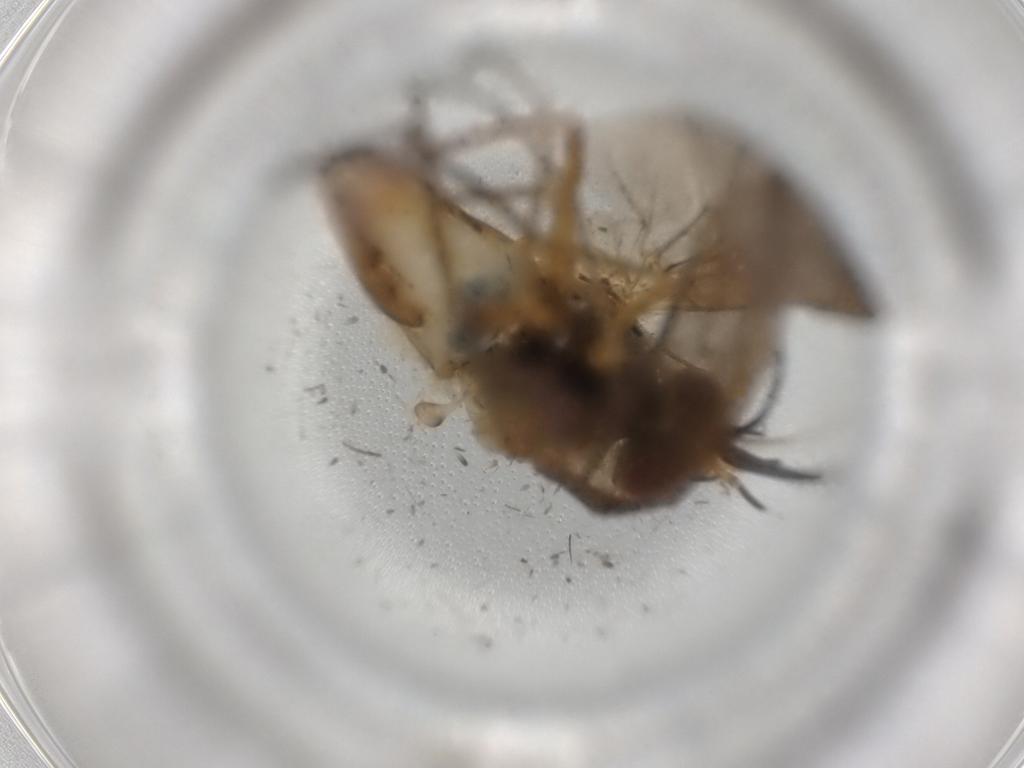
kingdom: Animalia
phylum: Arthropoda
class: Insecta
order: Diptera
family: Bombyliidae
